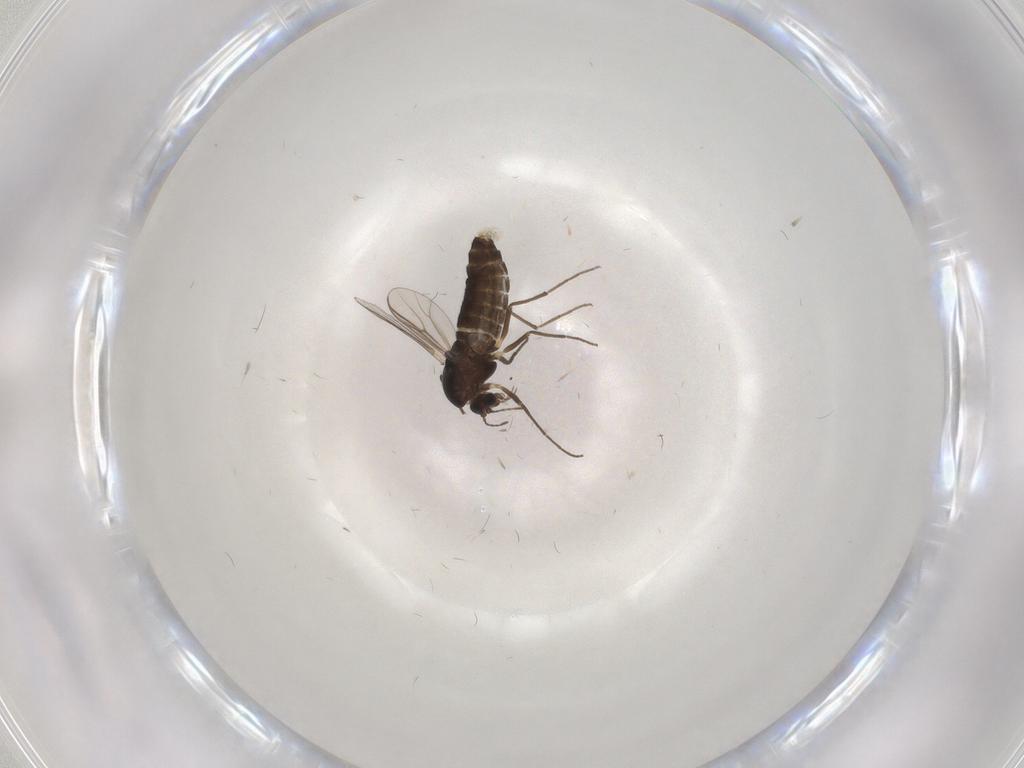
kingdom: Animalia
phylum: Arthropoda
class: Insecta
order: Diptera
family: Chironomidae
